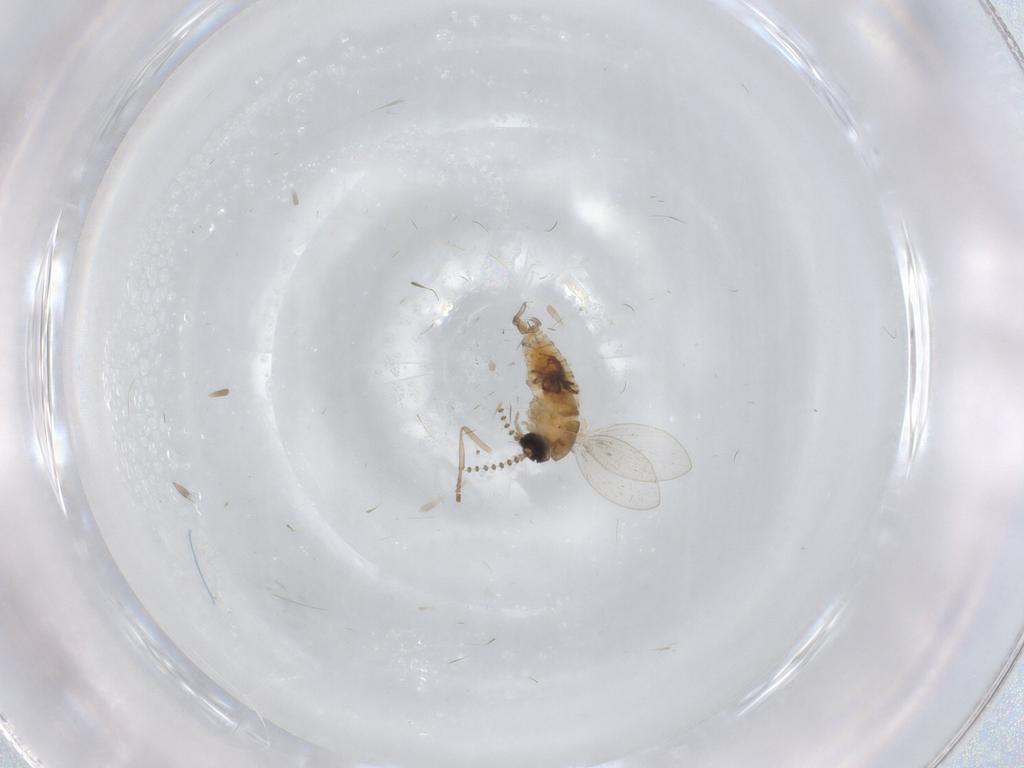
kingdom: Animalia
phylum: Arthropoda
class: Insecta
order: Diptera
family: Psychodidae
